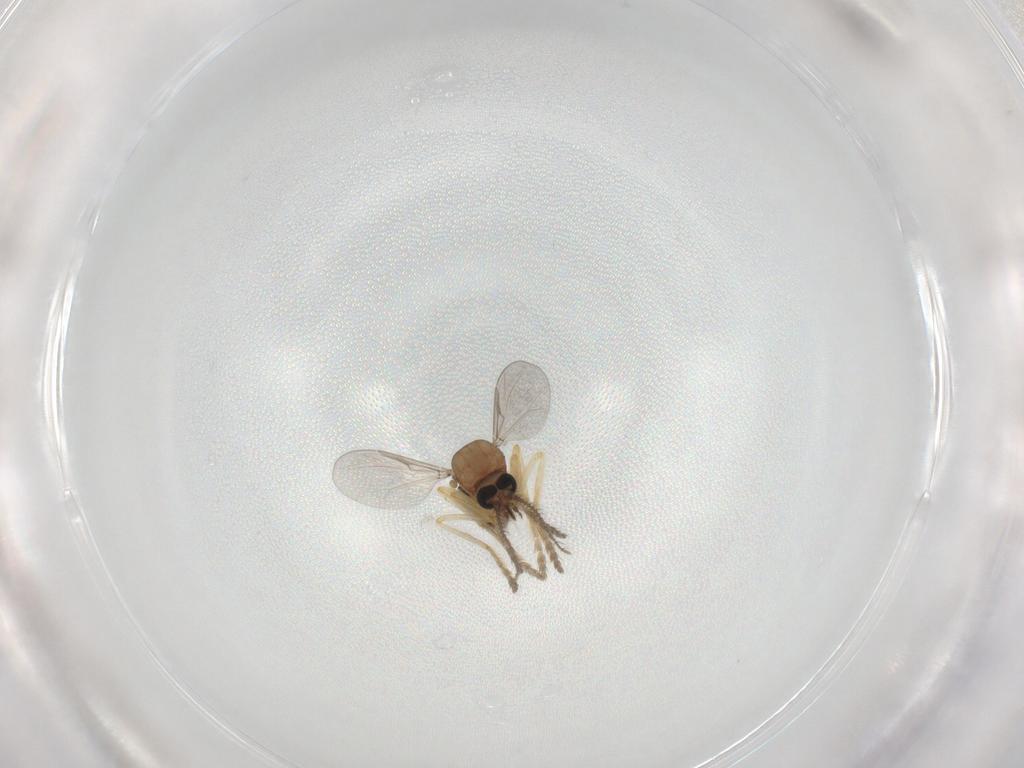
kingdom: Animalia
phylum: Arthropoda
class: Insecta
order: Diptera
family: Ceratopogonidae
